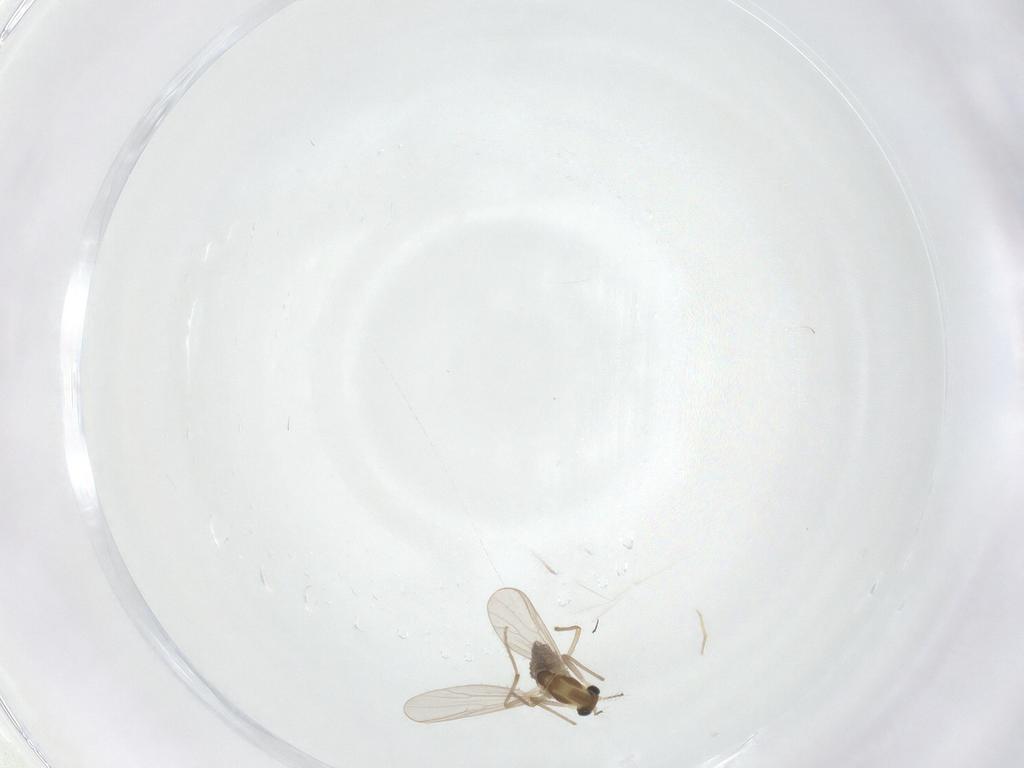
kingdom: Animalia
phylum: Arthropoda
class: Insecta
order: Diptera
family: Chironomidae
